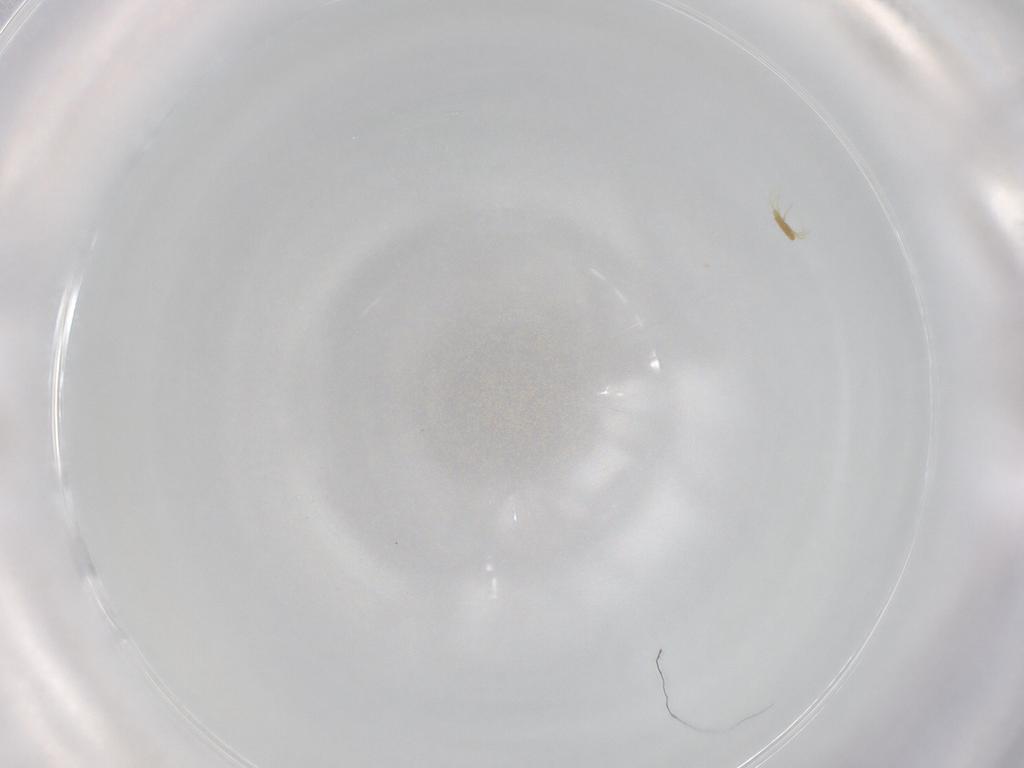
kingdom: Animalia
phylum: Arthropoda
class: Arachnida
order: Trombidiformes
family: Erythraeidae
